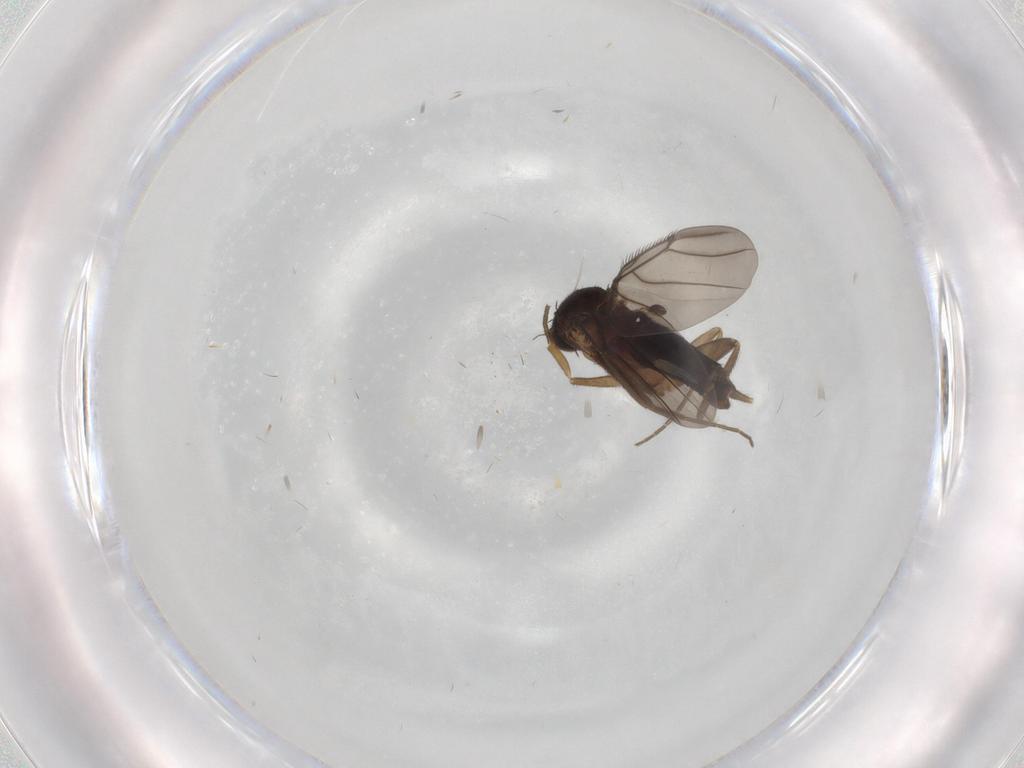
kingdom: Animalia
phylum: Arthropoda
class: Insecta
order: Diptera
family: Phoridae
